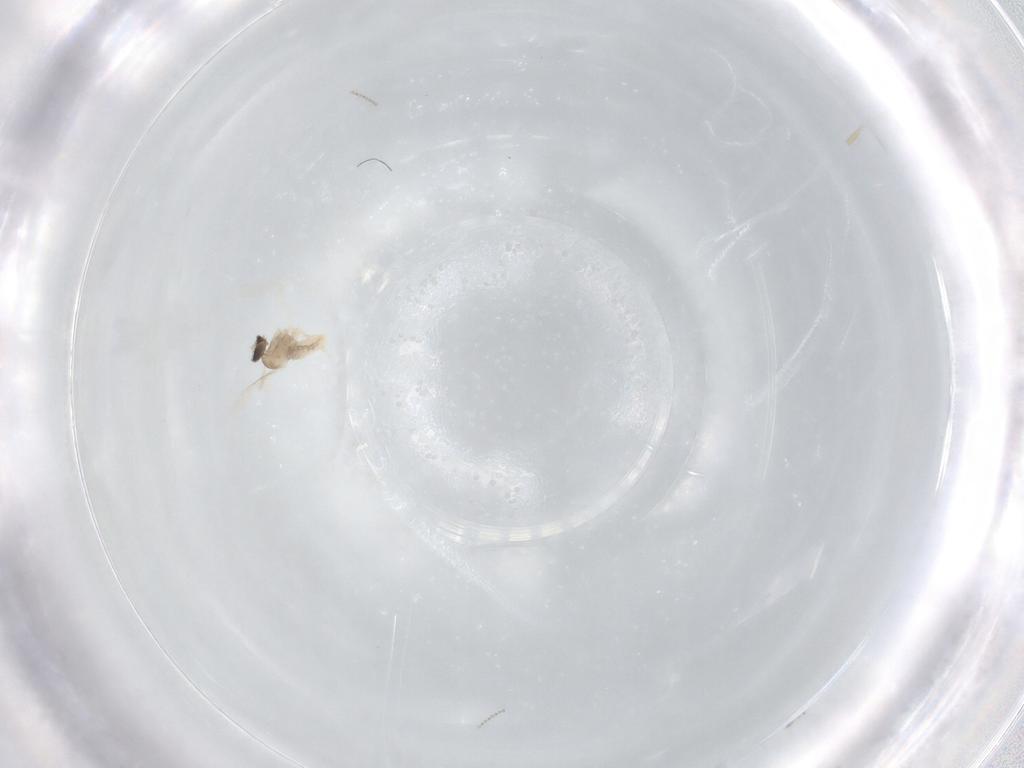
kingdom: Animalia
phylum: Arthropoda
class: Insecta
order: Diptera
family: Cecidomyiidae
